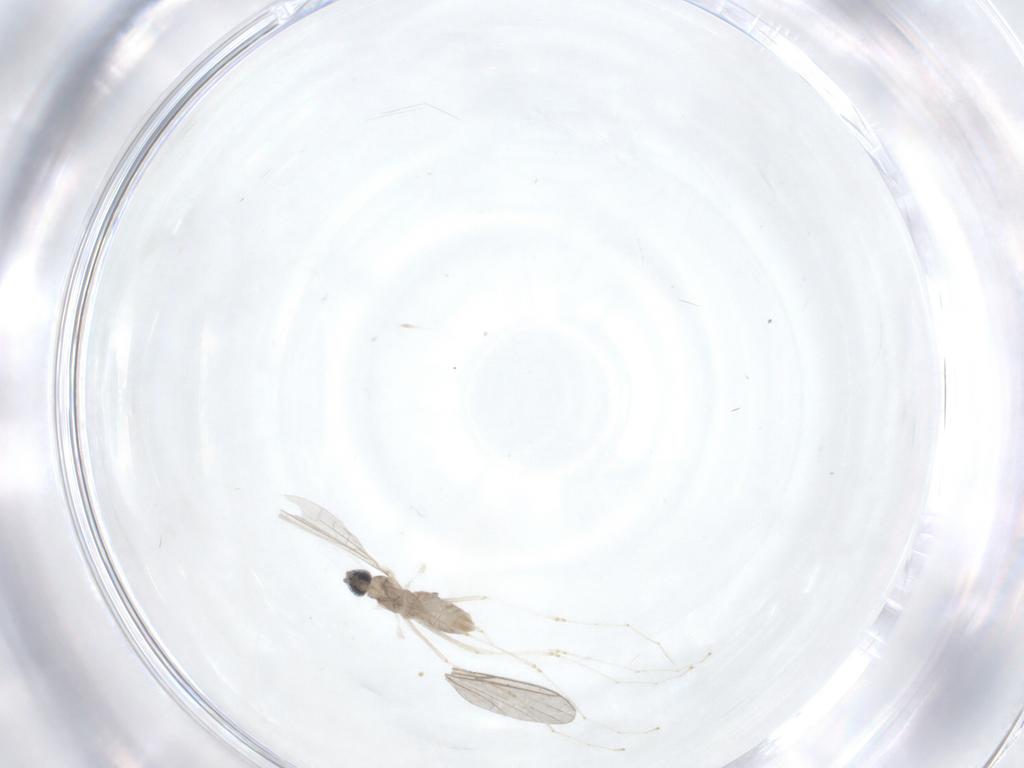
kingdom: Animalia
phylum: Arthropoda
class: Insecta
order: Diptera
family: Cecidomyiidae
